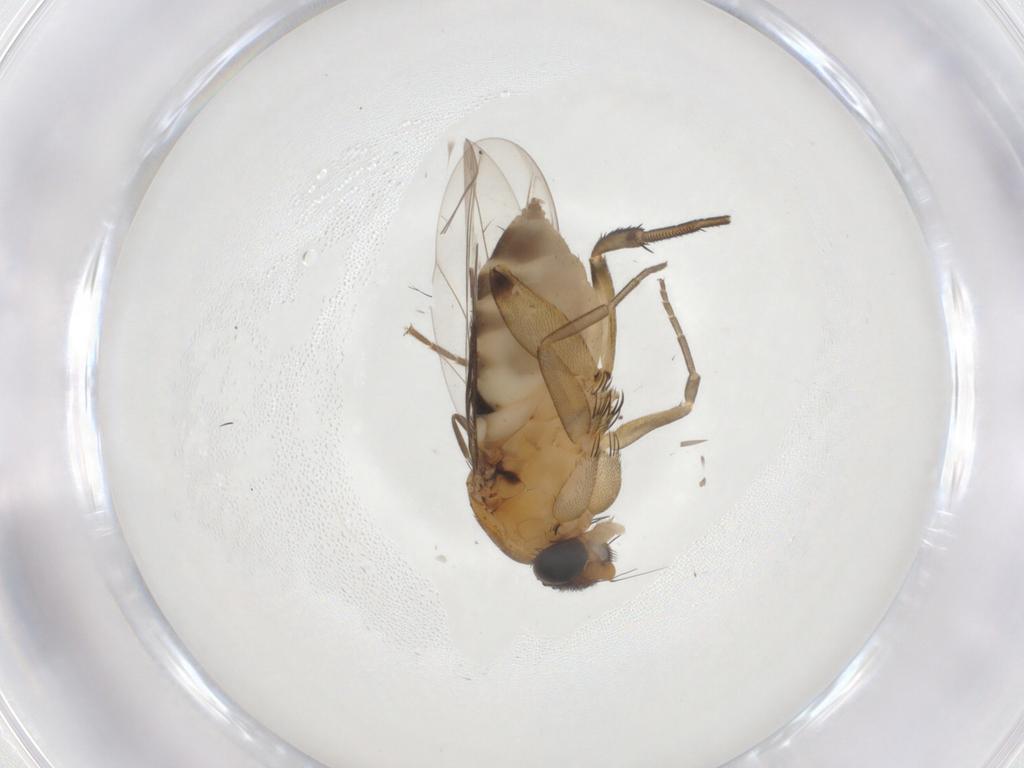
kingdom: Animalia
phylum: Arthropoda
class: Insecta
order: Diptera
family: Phoridae
